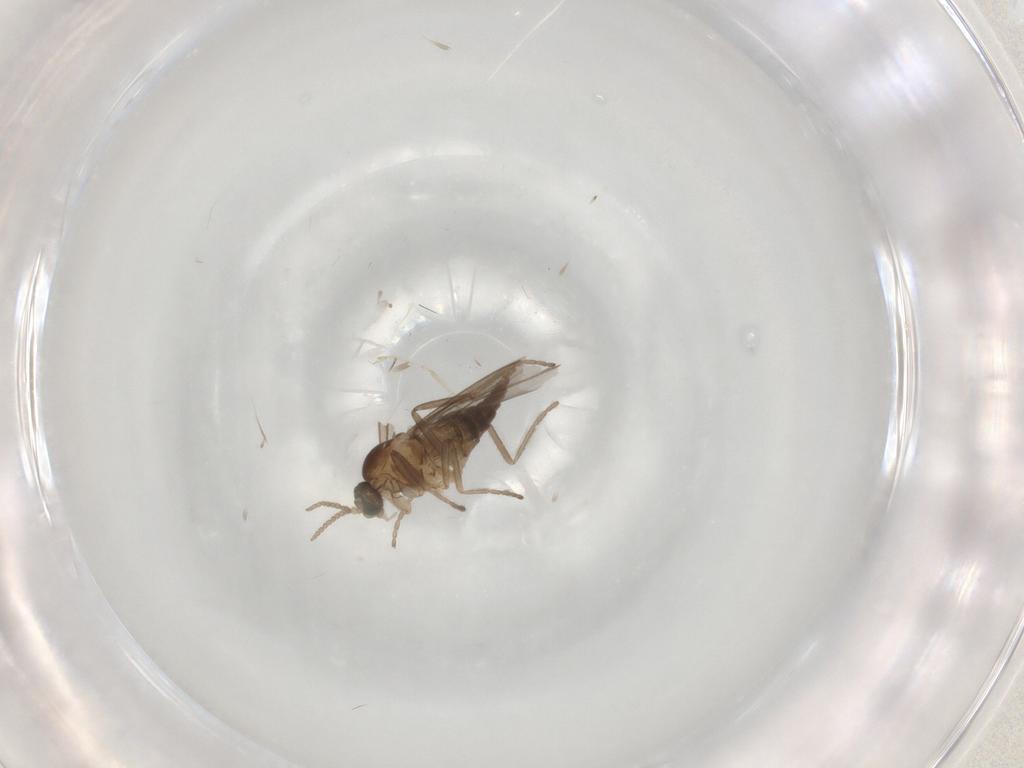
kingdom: Animalia
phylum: Arthropoda
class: Insecta
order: Diptera
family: Cecidomyiidae
